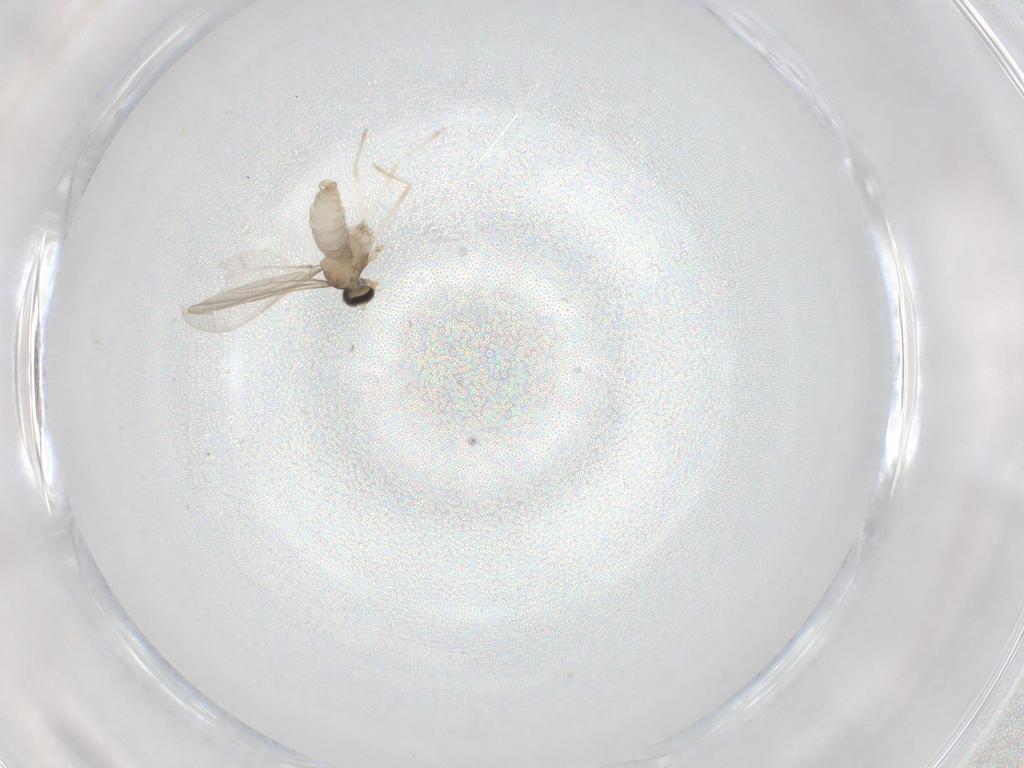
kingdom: Animalia
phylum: Arthropoda
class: Insecta
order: Diptera
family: Cecidomyiidae
